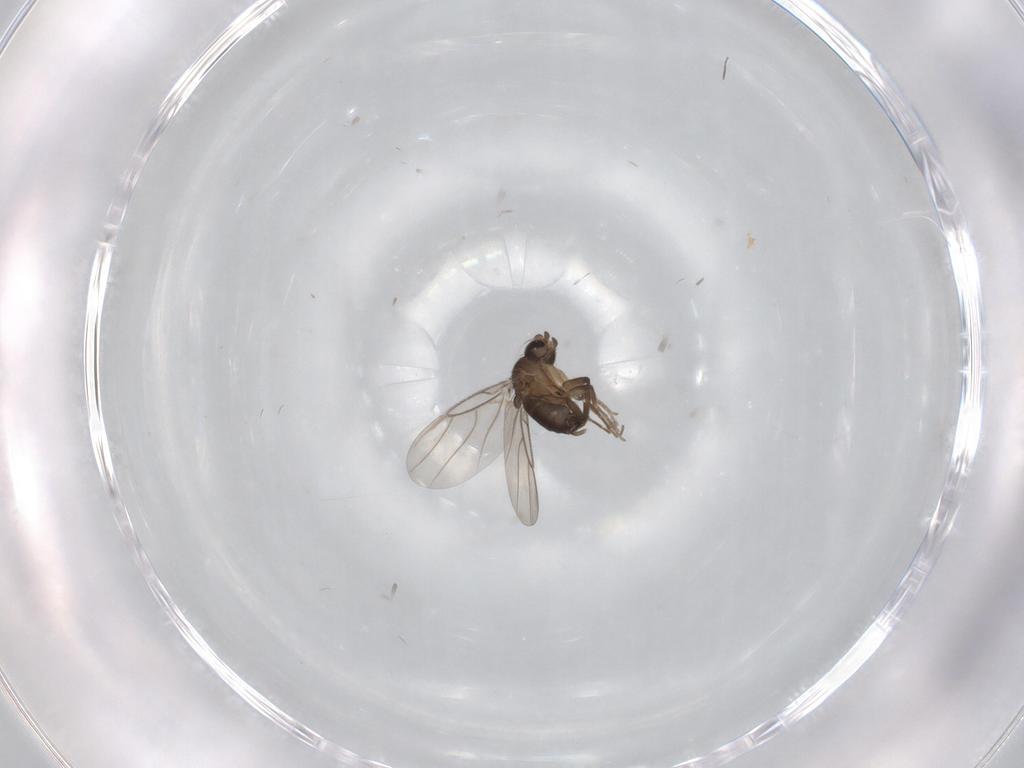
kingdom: Animalia
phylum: Arthropoda
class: Insecta
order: Diptera
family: Phoridae
